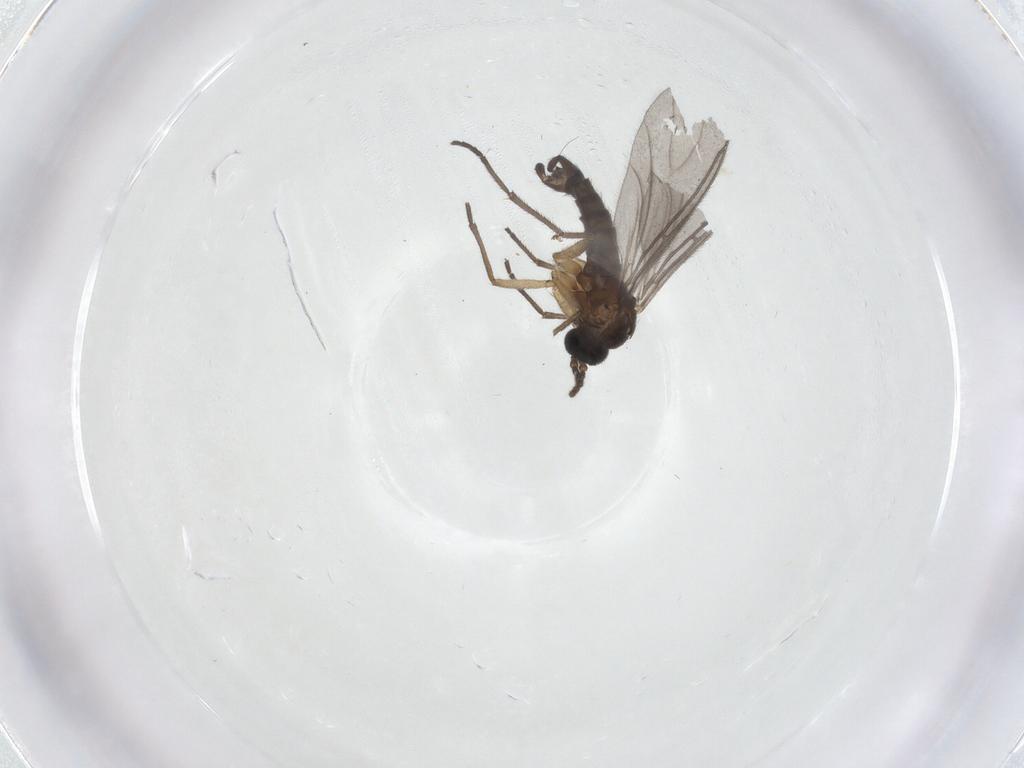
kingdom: Animalia
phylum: Arthropoda
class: Insecta
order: Diptera
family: Sciaridae
